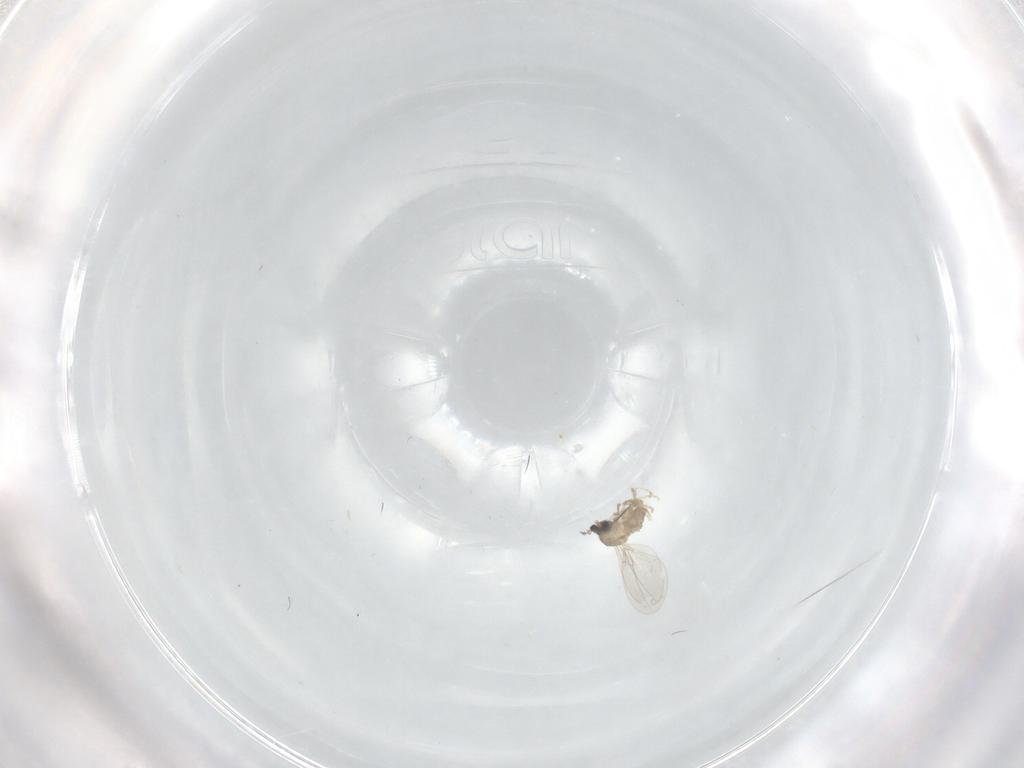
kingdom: Animalia
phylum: Arthropoda
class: Insecta
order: Diptera
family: Cecidomyiidae
